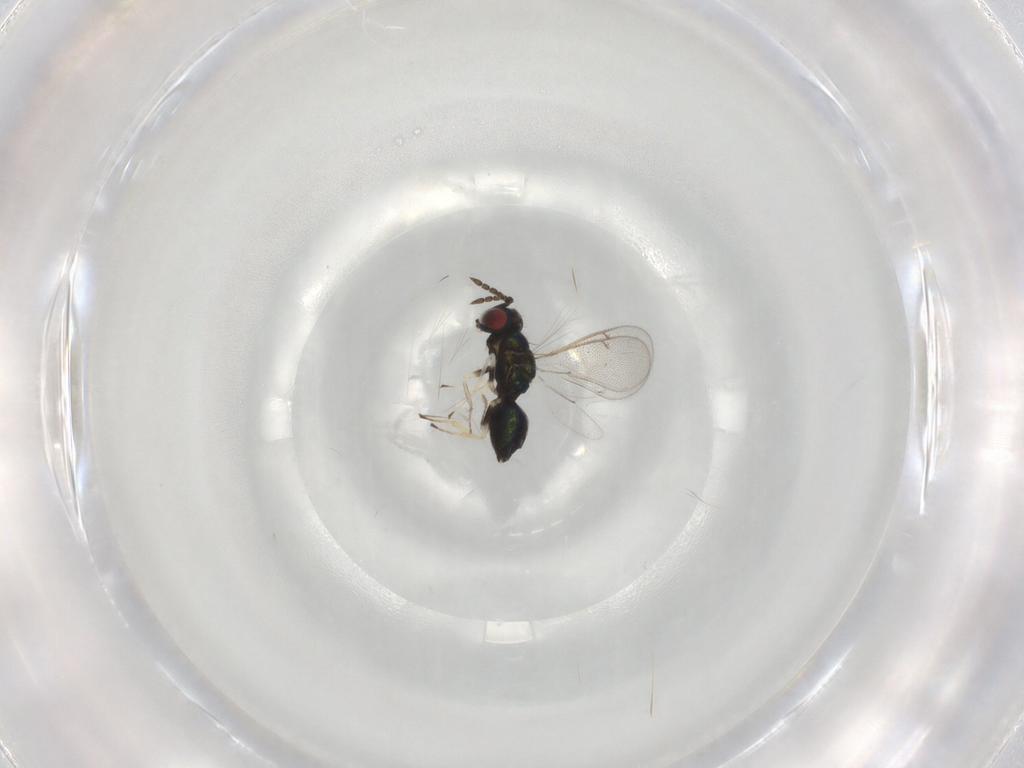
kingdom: Animalia
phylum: Arthropoda
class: Insecta
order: Hymenoptera
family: Eulophidae
